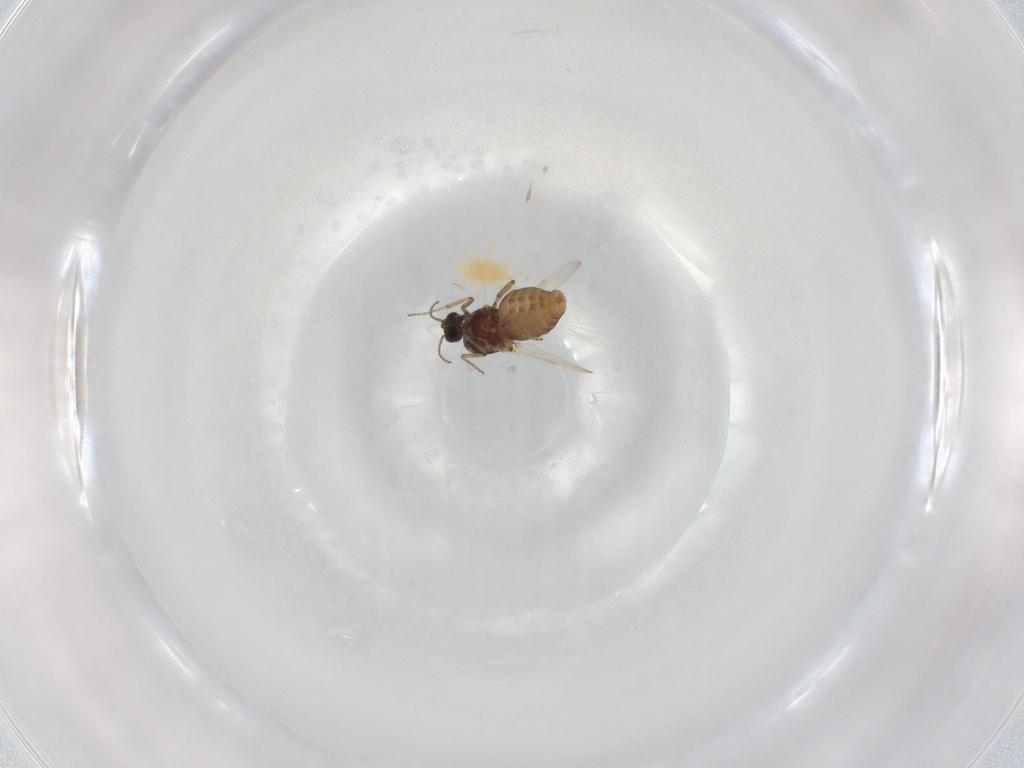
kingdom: Animalia
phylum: Arthropoda
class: Insecta
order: Diptera
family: Ceratopogonidae
